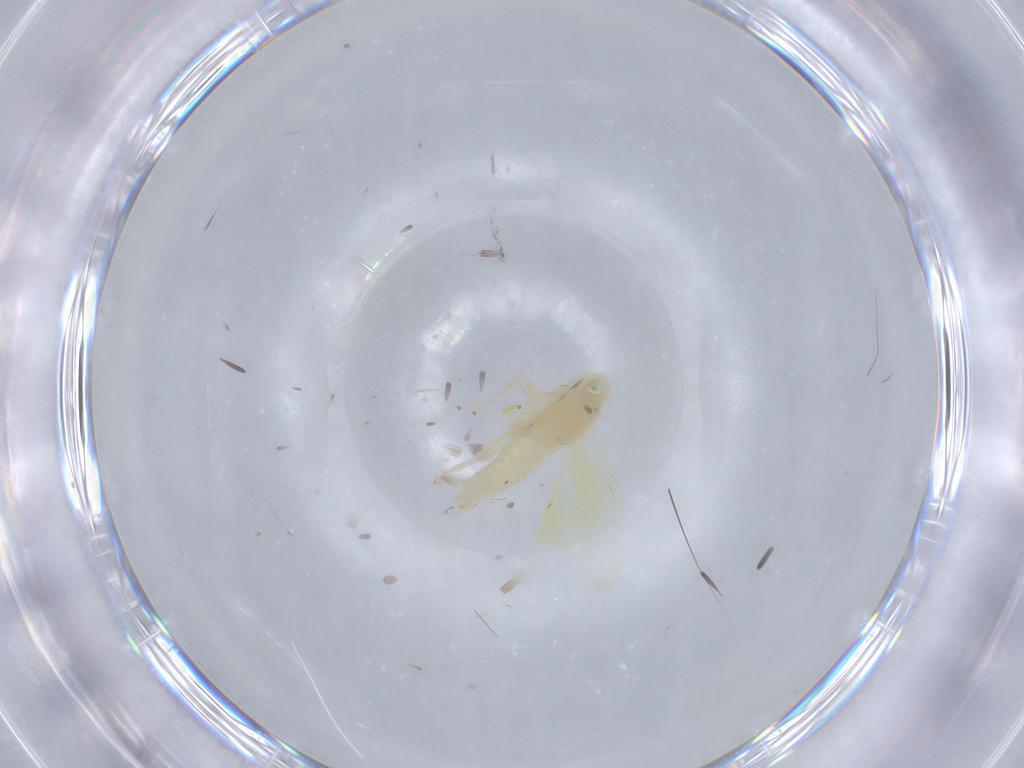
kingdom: Animalia
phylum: Arthropoda
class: Insecta
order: Hemiptera
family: Cicadellidae
